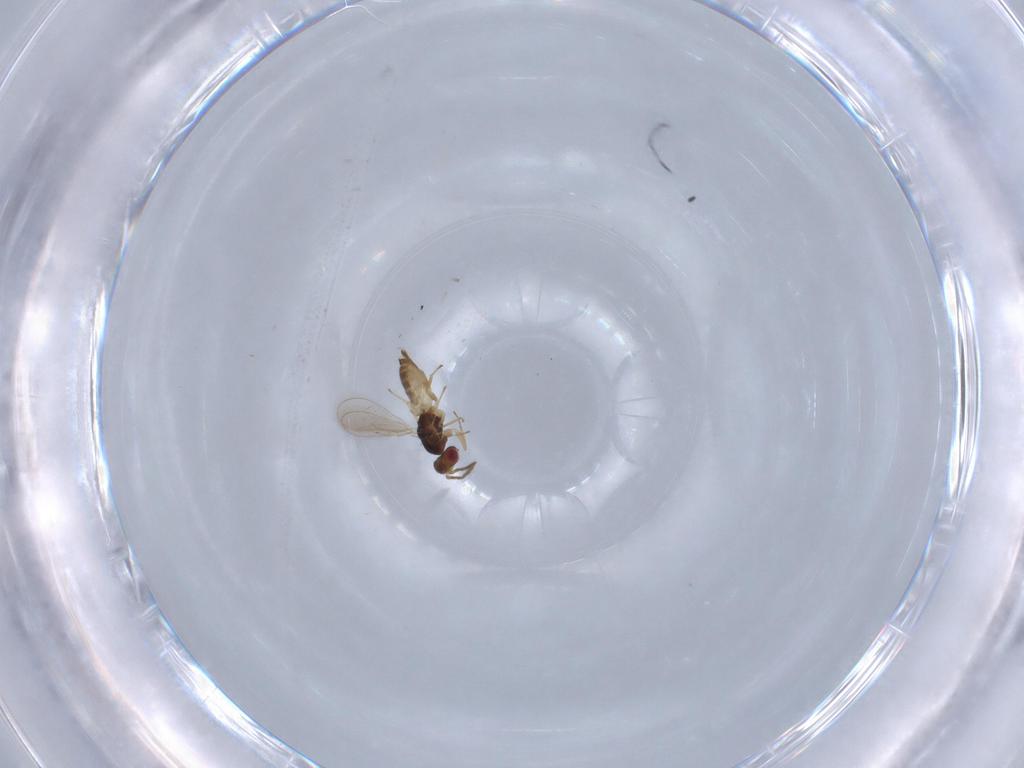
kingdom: Animalia
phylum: Arthropoda
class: Insecta
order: Hymenoptera
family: Eulophidae
